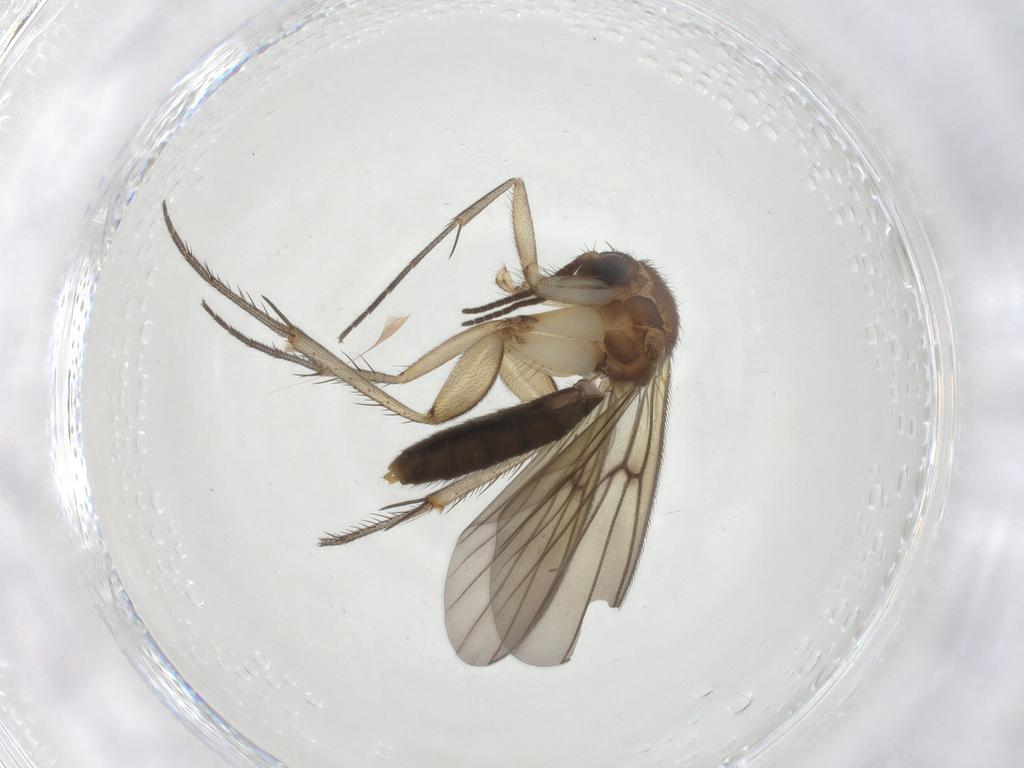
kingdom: Animalia
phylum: Arthropoda
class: Insecta
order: Diptera
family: Mycetophilidae
